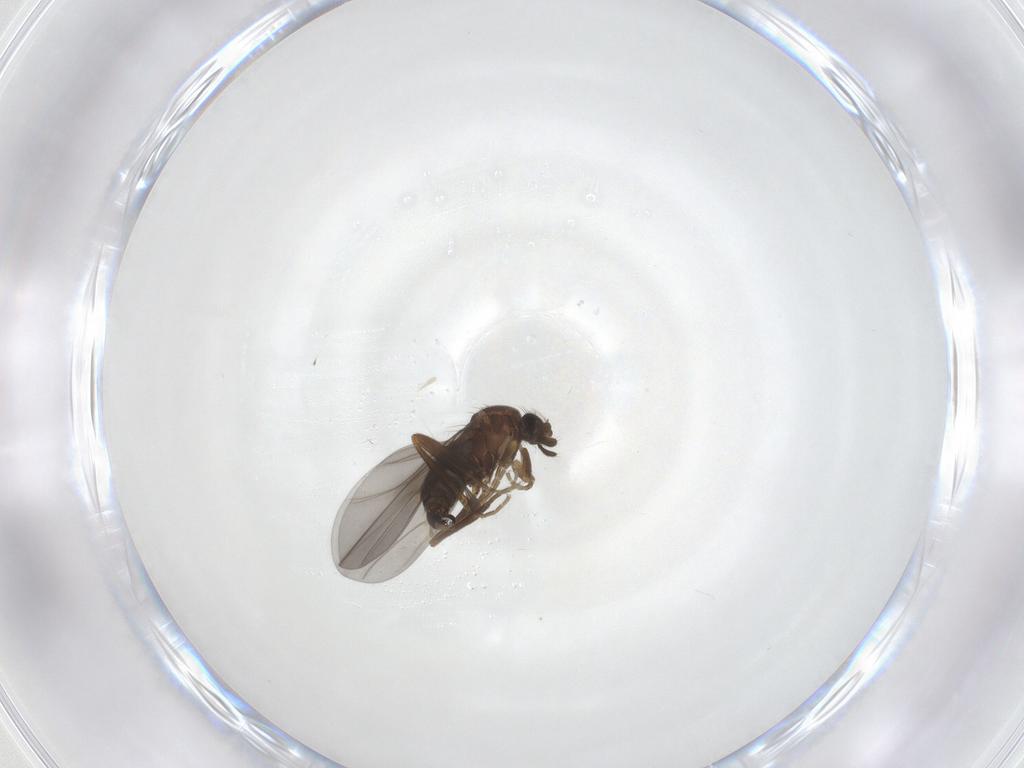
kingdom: Animalia
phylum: Arthropoda
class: Insecta
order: Diptera
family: Phoridae
